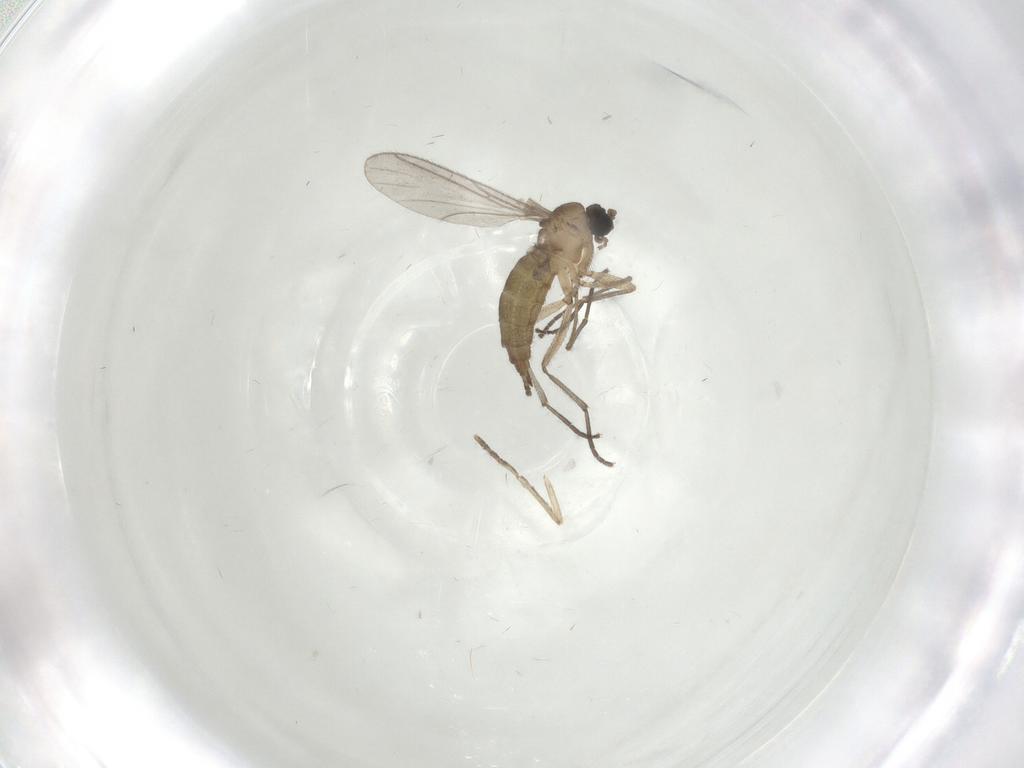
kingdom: Animalia
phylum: Arthropoda
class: Insecta
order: Diptera
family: Sciaridae
